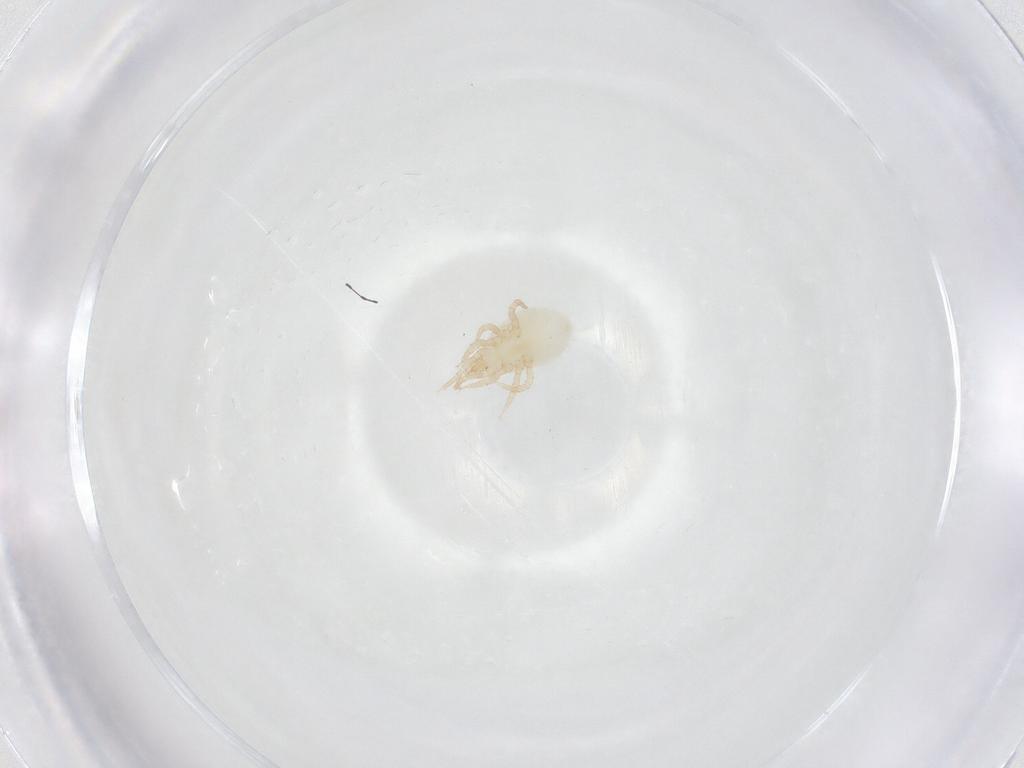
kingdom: Animalia
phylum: Arthropoda
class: Arachnida
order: Mesostigmata
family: Melicharidae
